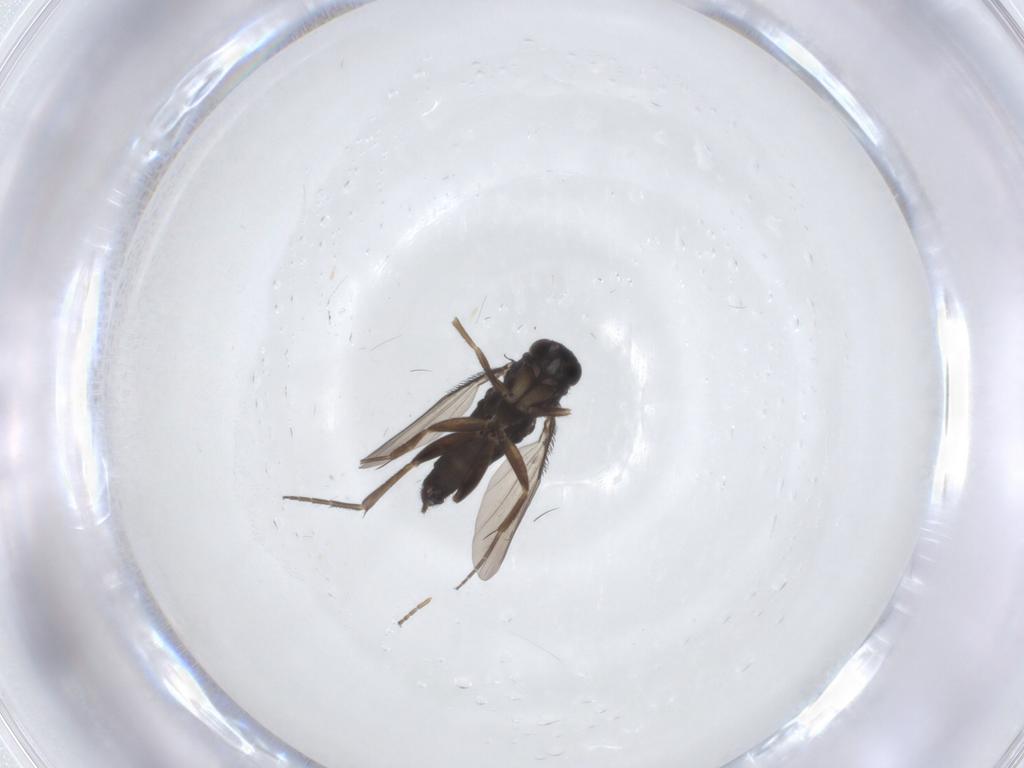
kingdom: Animalia
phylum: Arthropoda
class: Insecta
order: Diptera
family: Phoridae
